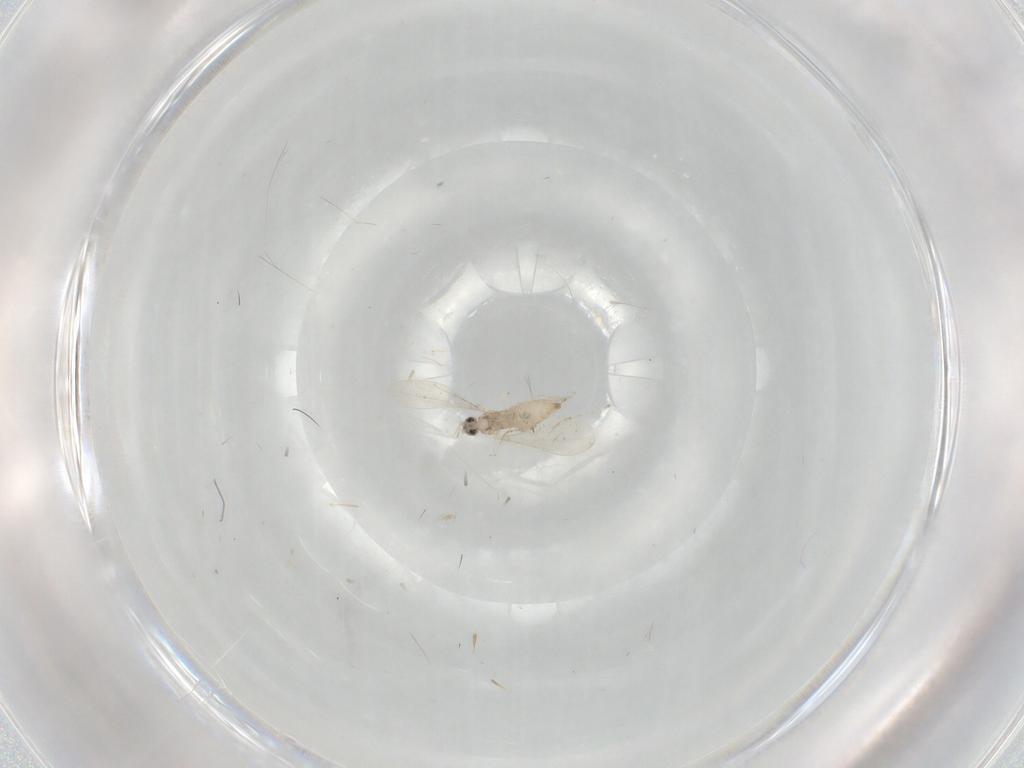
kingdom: Animalia
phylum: Arthropoda
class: Insecta
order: Diptera
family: Cecidomyiidae
